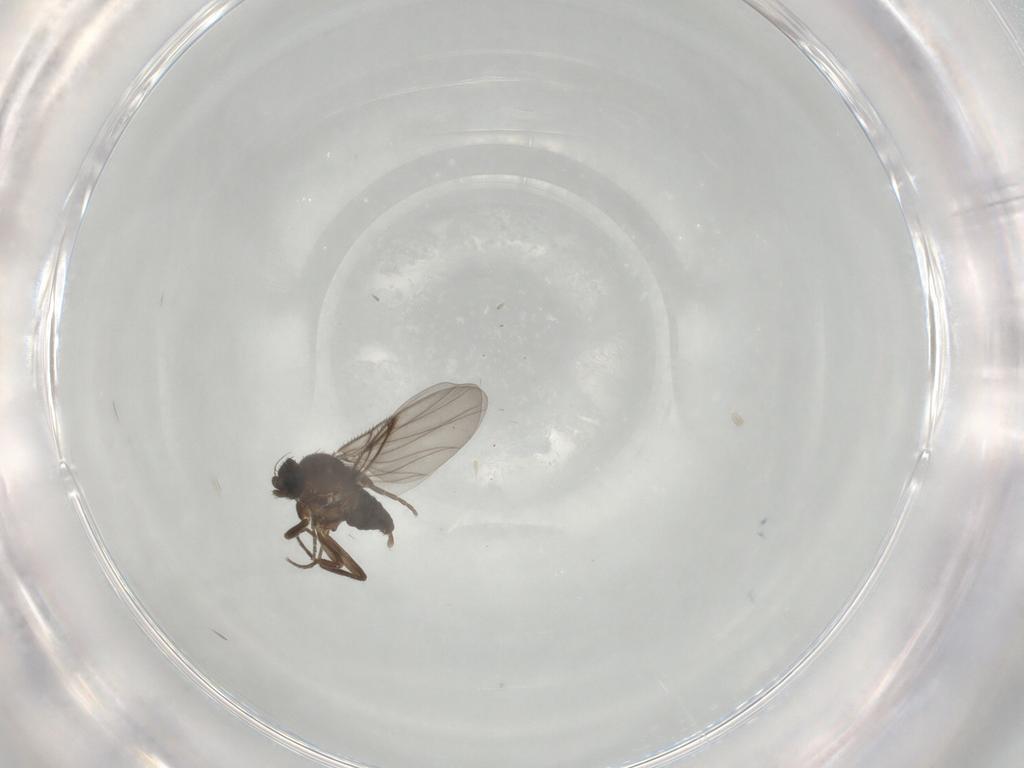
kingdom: Animalia
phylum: Arthropoda
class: Insecta
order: Diptera
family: Phoridae
